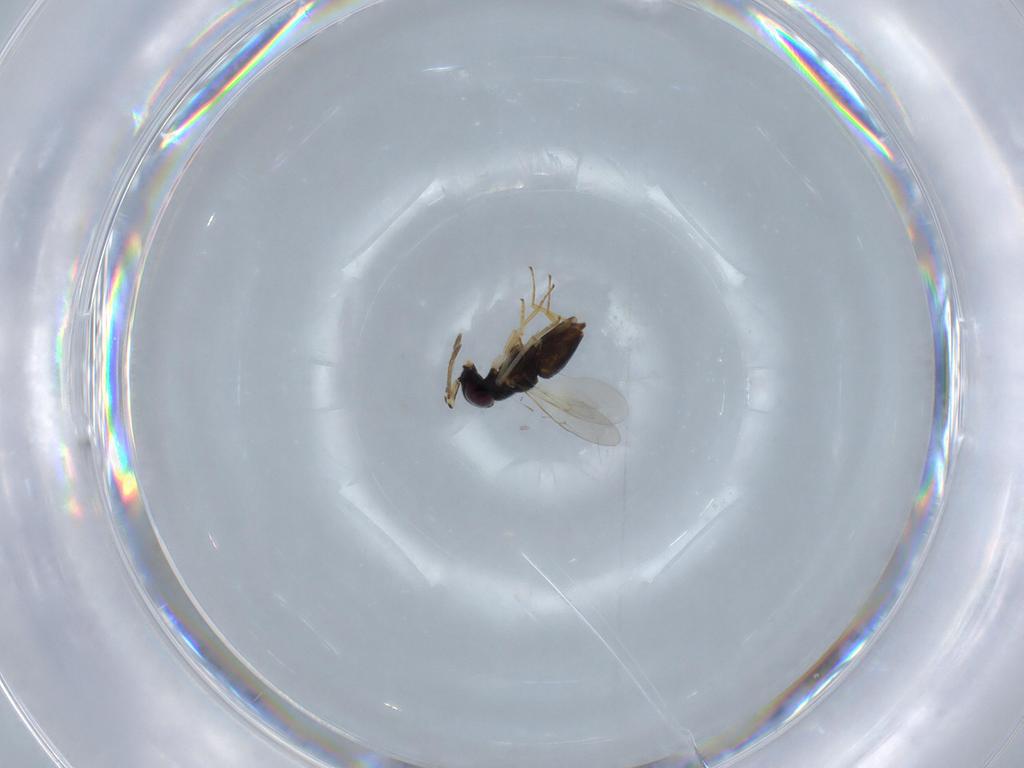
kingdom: Animalia
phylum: Arthropoda
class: Insecta
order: Hymenoptera
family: Encyrtidae
